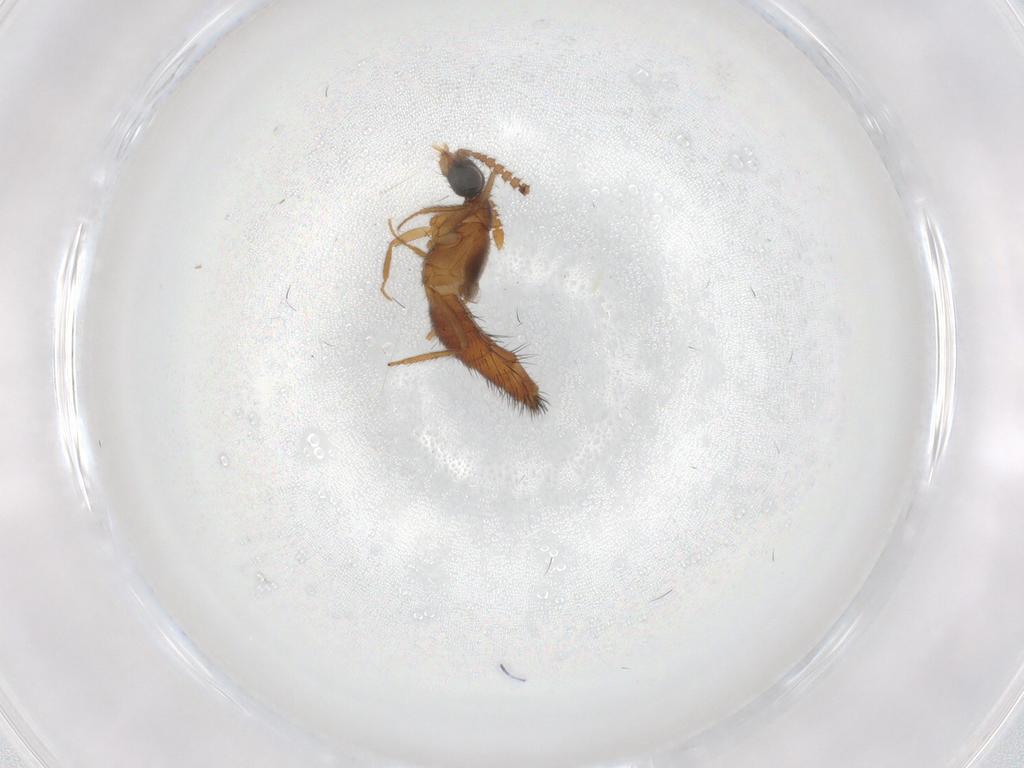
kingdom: Animalia
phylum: Arthropoda
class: Insecta
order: Coleoptera
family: Staphylinidae
